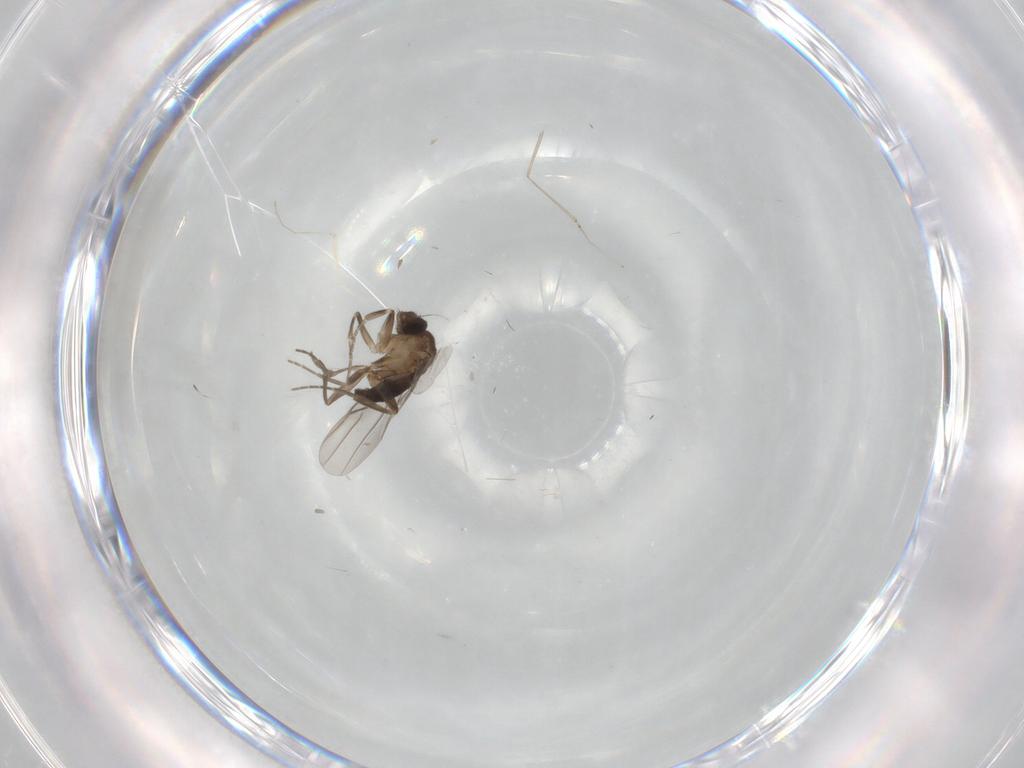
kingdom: Animalia
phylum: Arthropoda
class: Insecta
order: Diptera
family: Cecidomyiidae
